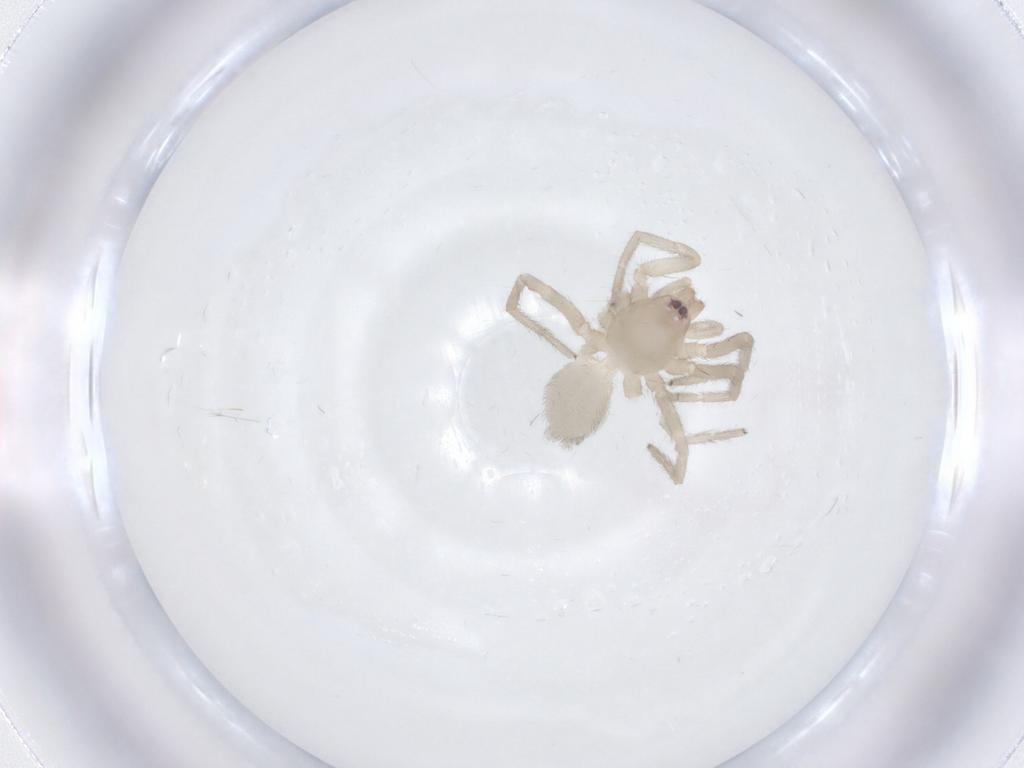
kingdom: Animalia
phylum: Arthropoda
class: Arachnida
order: Araneae
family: Gnaphosidae
